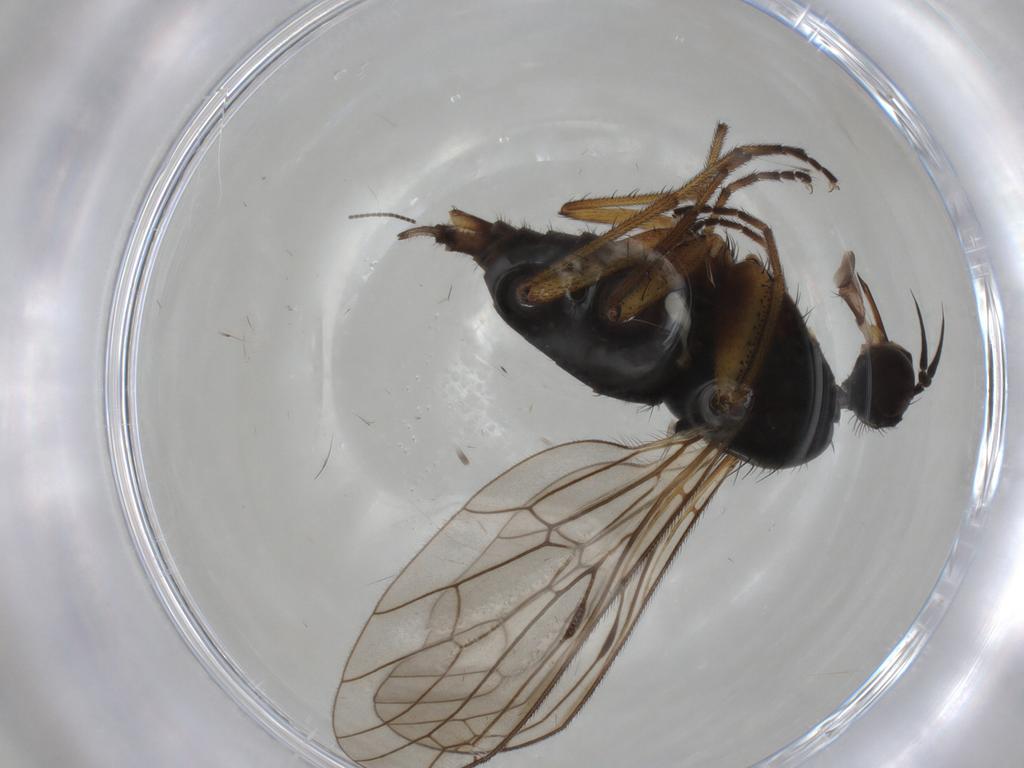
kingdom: Animalia
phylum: Arthropoda
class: Insecta
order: Diptera
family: Empididae
